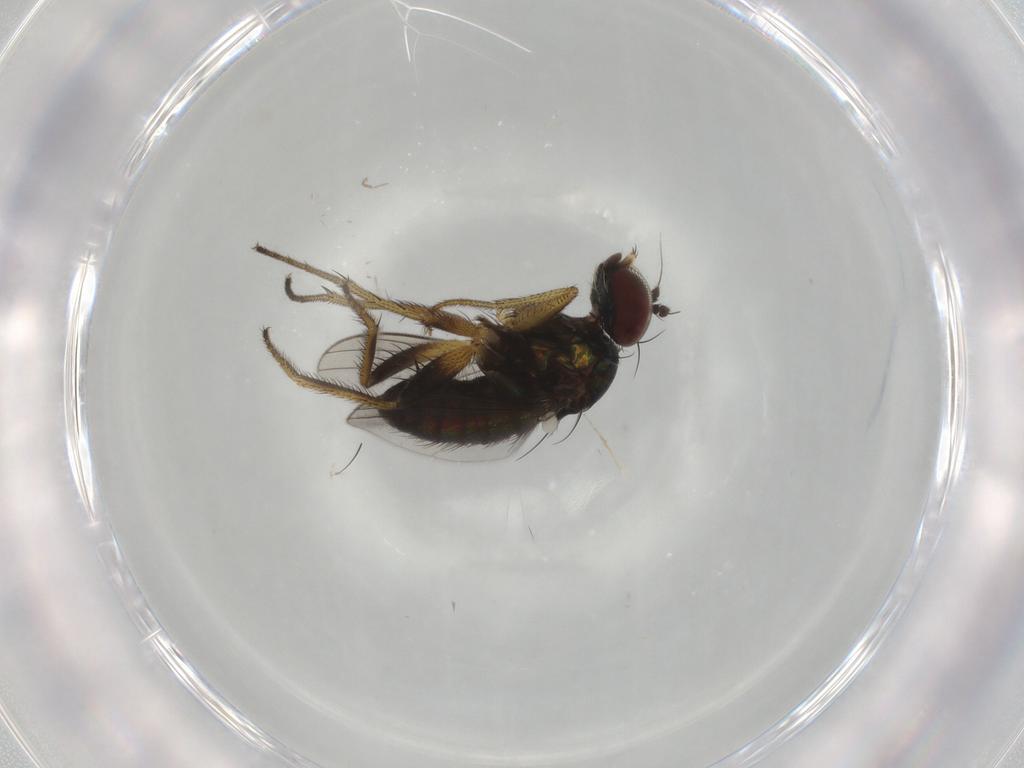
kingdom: Animalia
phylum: Arthropoda
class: Insecta
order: Diptera
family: Dolichopodidae
